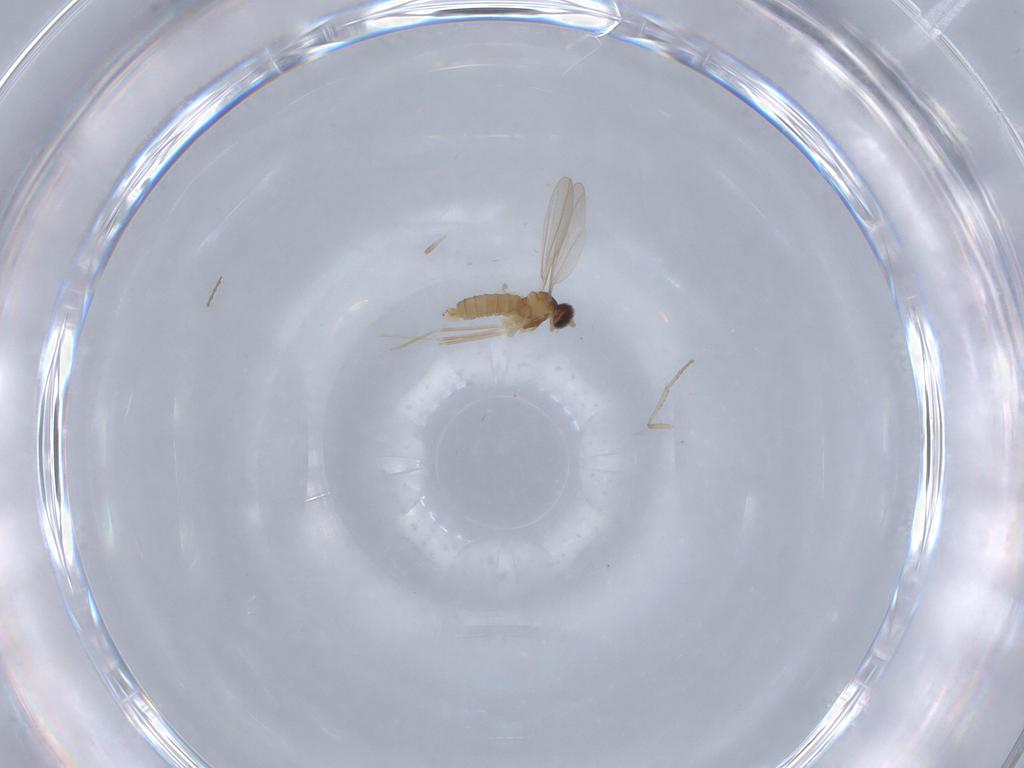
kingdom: Animalia
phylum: Arthropoda
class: Insecta
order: Diptera
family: Cecidomyiidae
